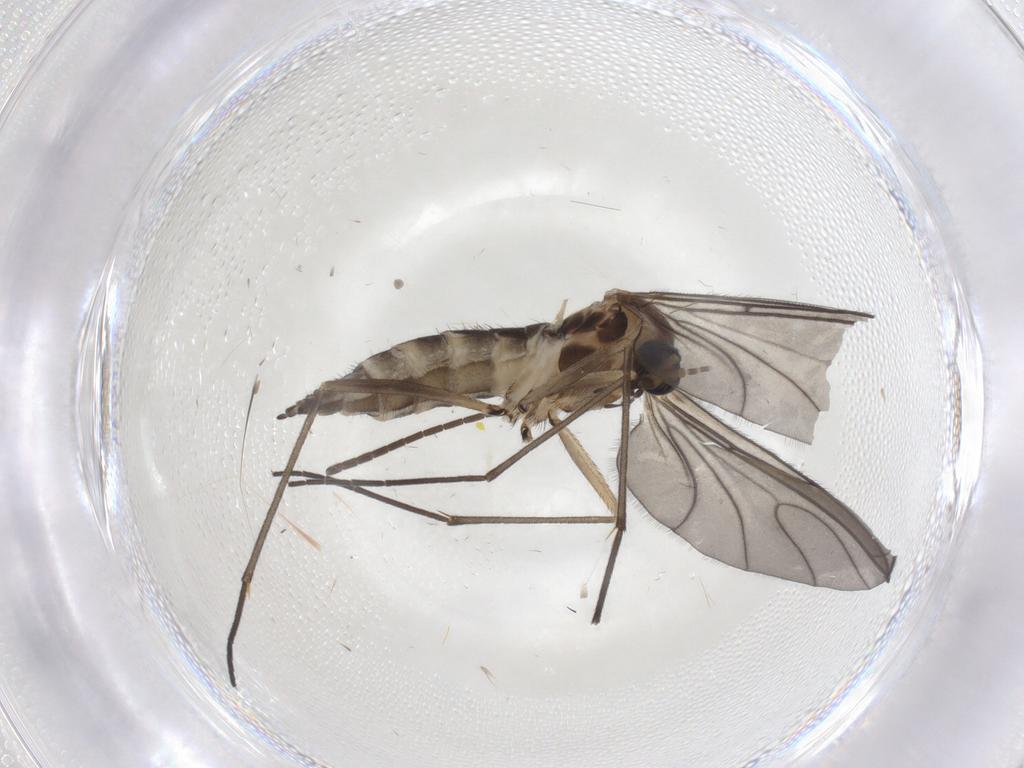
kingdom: Animalia
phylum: Arthropoda
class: Insecta
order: Diptera
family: Sciaridae
